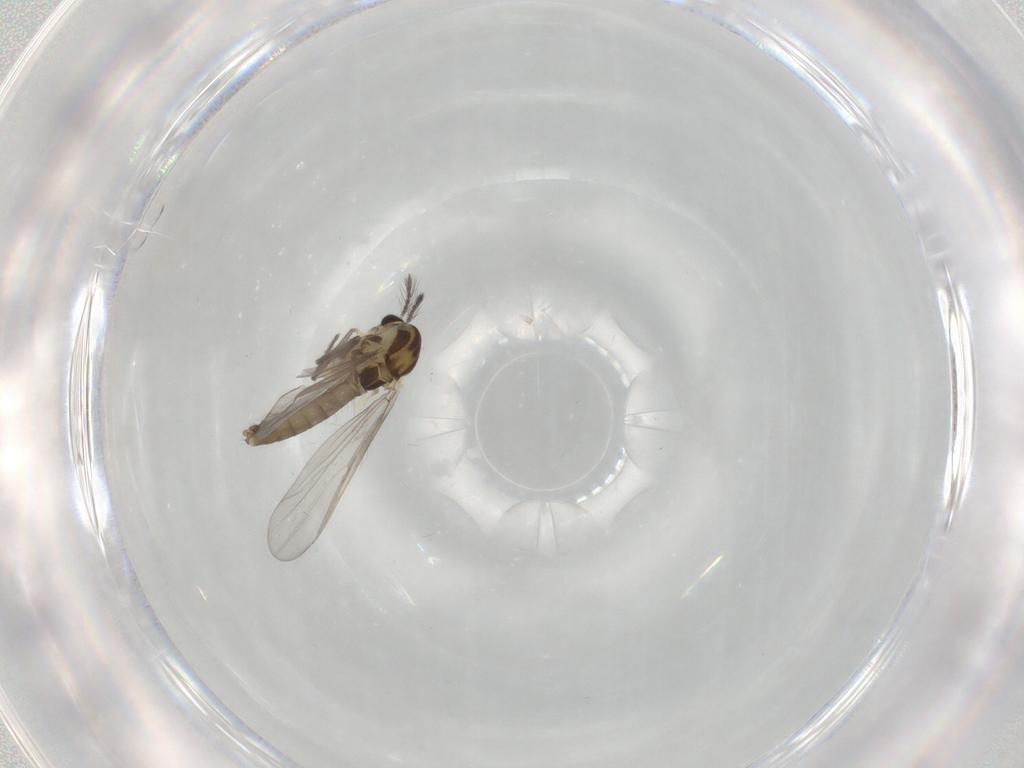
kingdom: Animalia
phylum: Arthropoda
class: Insecta
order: Diptera
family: Chironomidae
